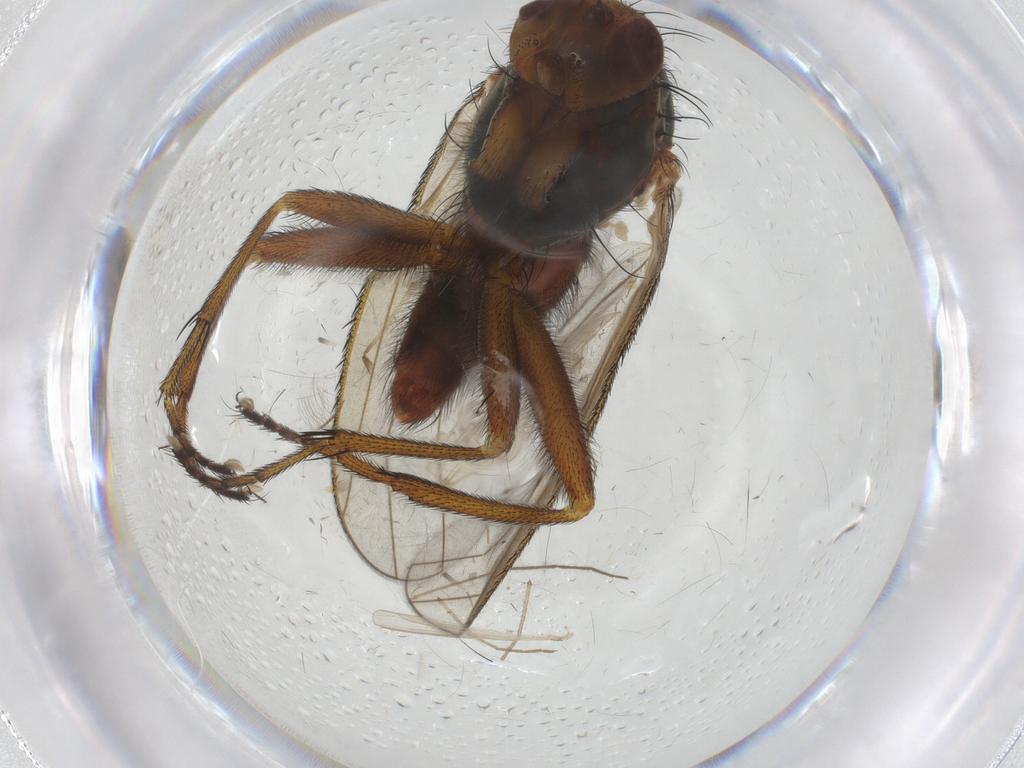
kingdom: Animalia
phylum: Arthropoda
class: Insecta
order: Diptera
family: Heleomyzidae
